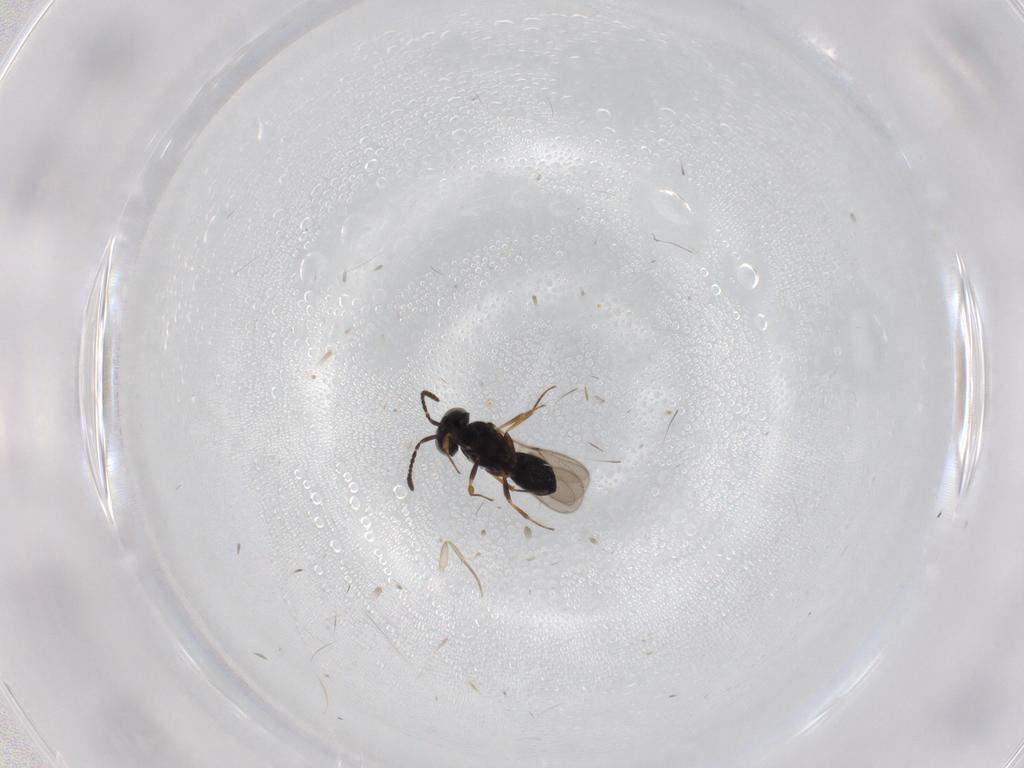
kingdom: Animalia
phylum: Arthropoda
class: Insecta
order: Hymenoptera
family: Scelionidae
